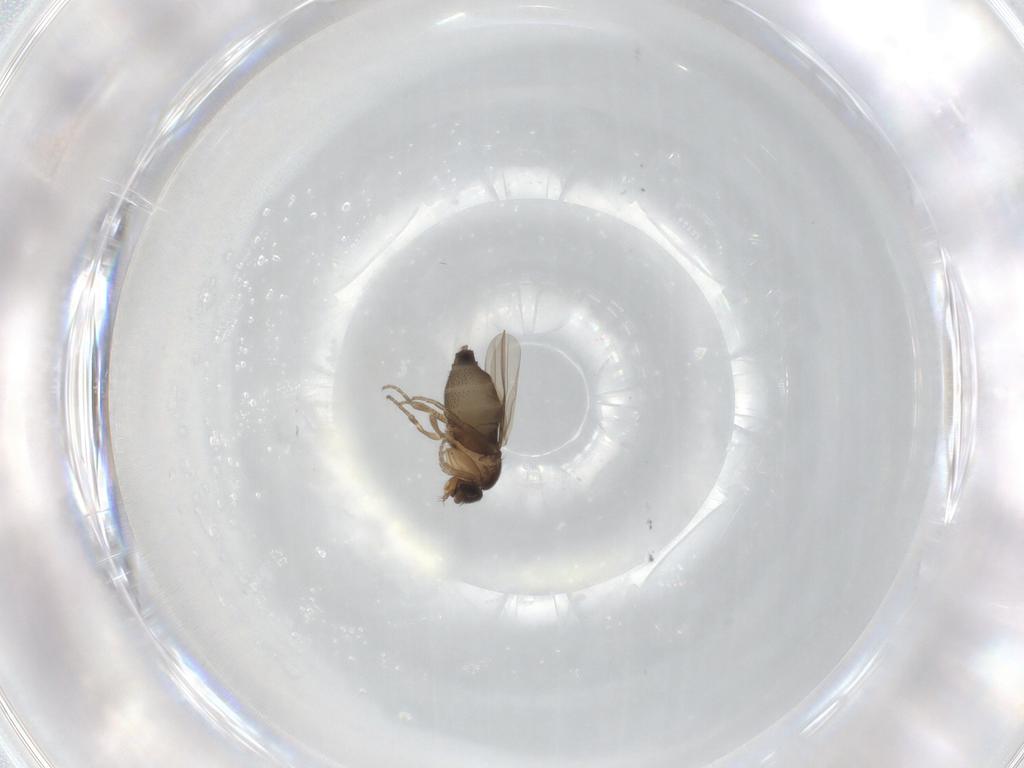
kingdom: Animalia
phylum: Arthropoda
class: Insecta
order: Diptera
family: Phoridae
